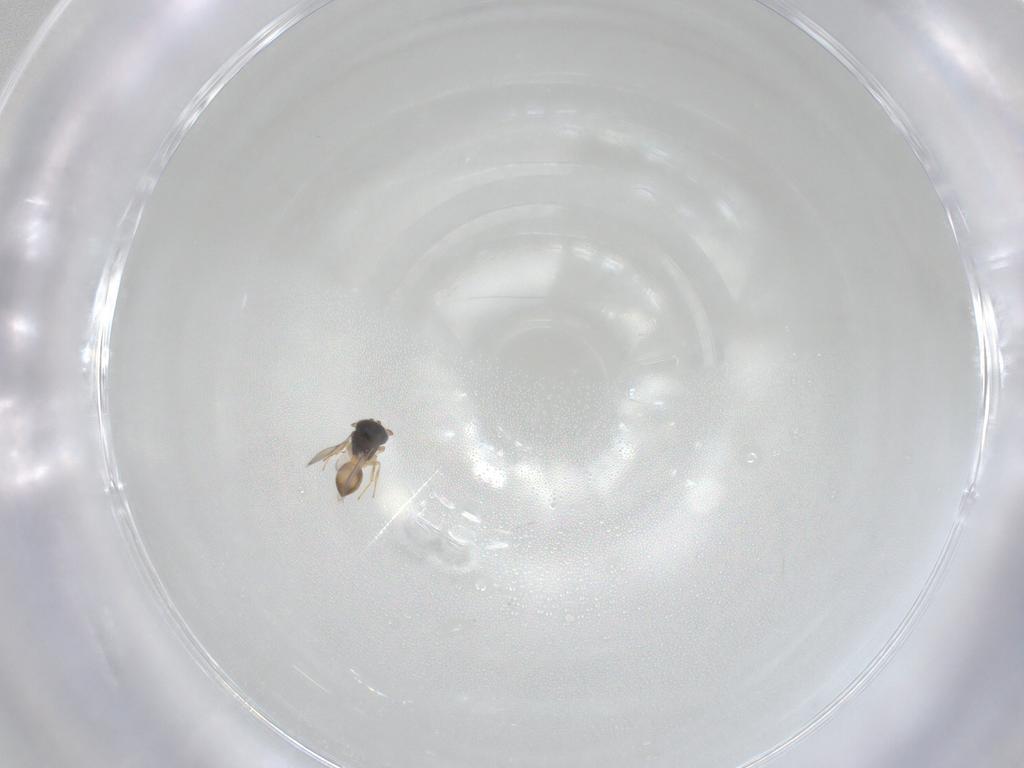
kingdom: Animalia
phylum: Arthropoda
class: Insecta
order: Hymenoptera
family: Scelionidae
